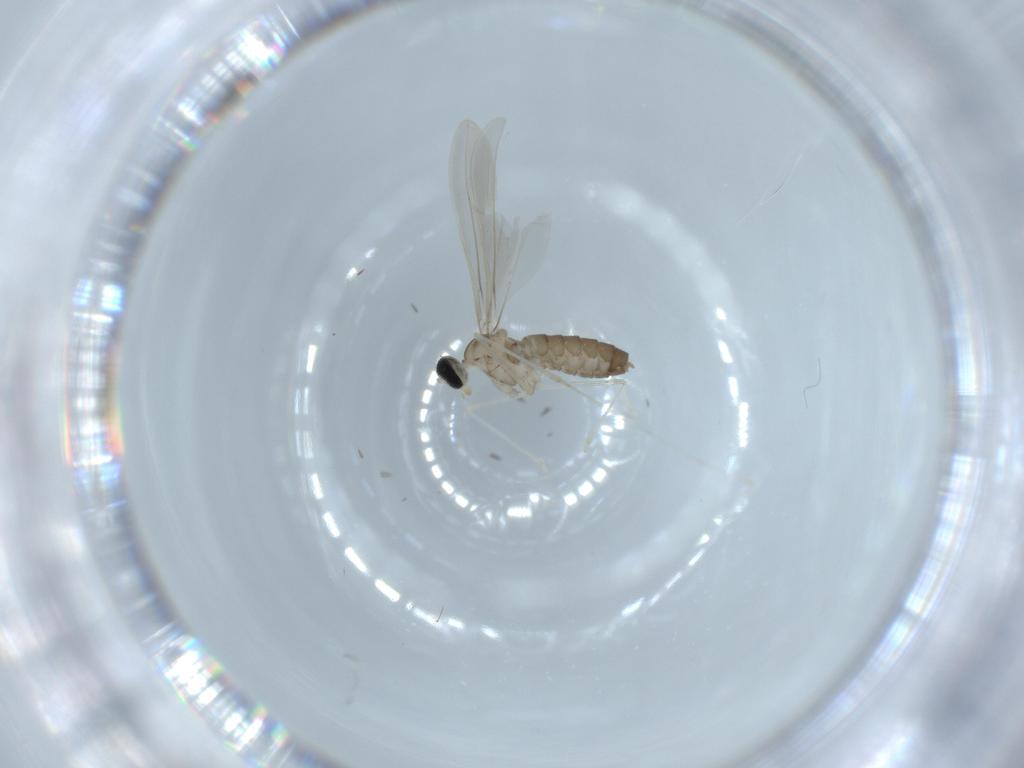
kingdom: Animalia
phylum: Arthropoda
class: Insecta
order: Diptera
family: Cecidomyiidae
